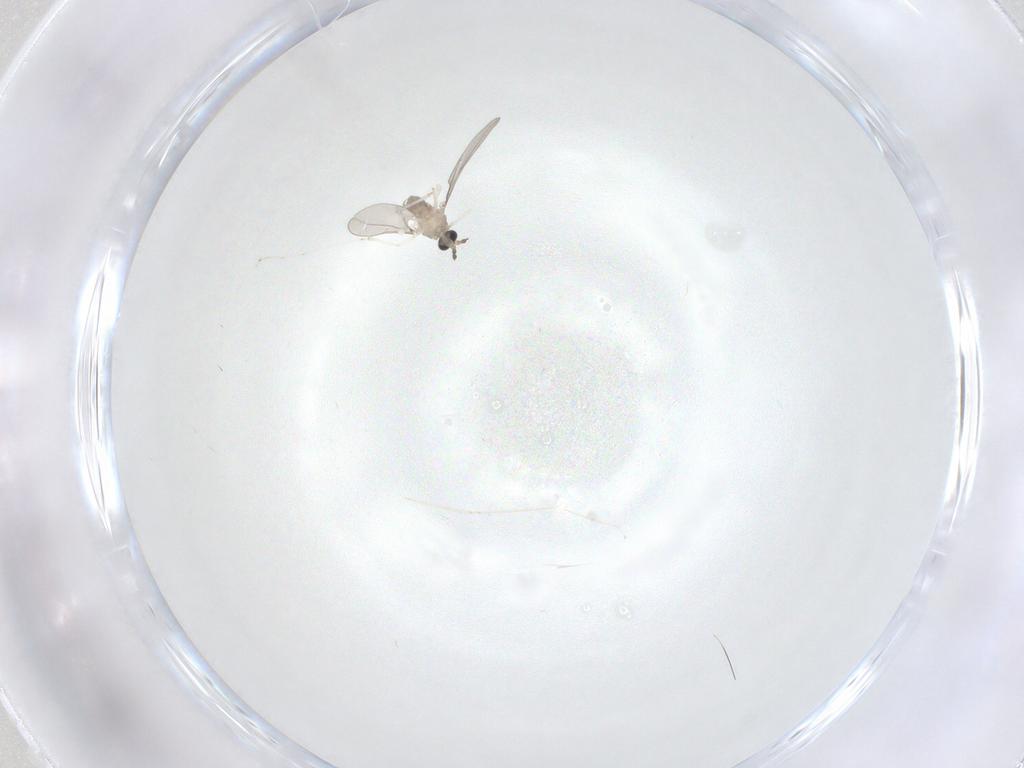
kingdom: Animalia
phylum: Arthropoda
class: Insecta
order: Diptera
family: Cecidomyiidae
